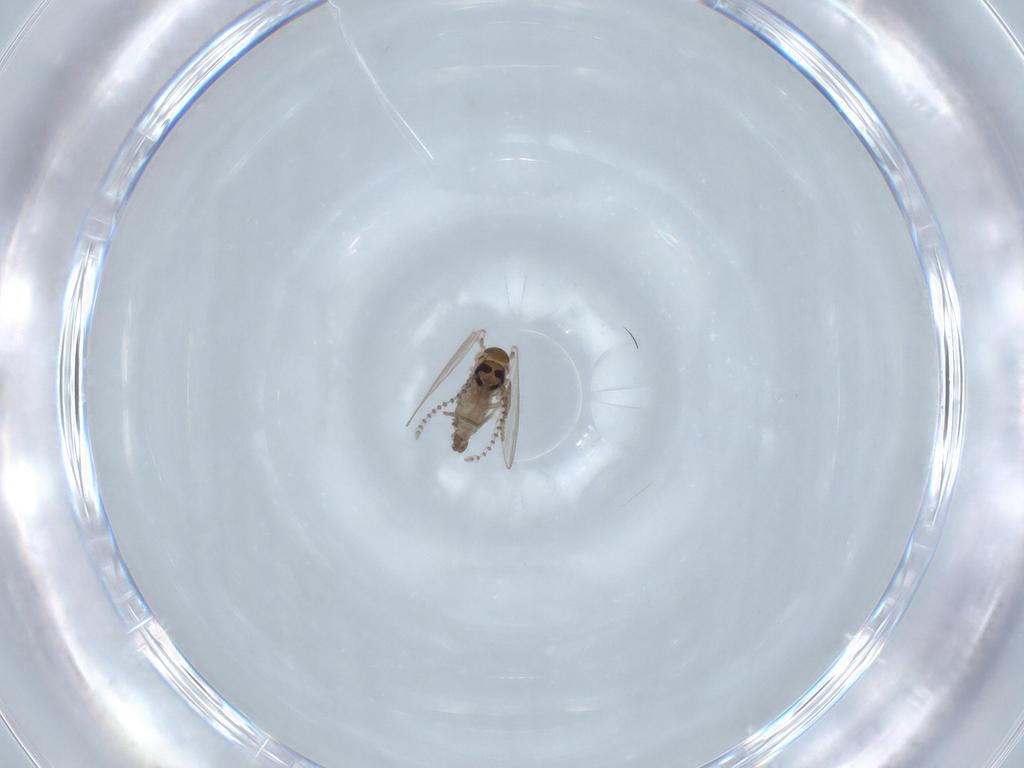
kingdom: Animalia
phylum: Arthropoda
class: Insecta
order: Diptera
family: Psychodidae
